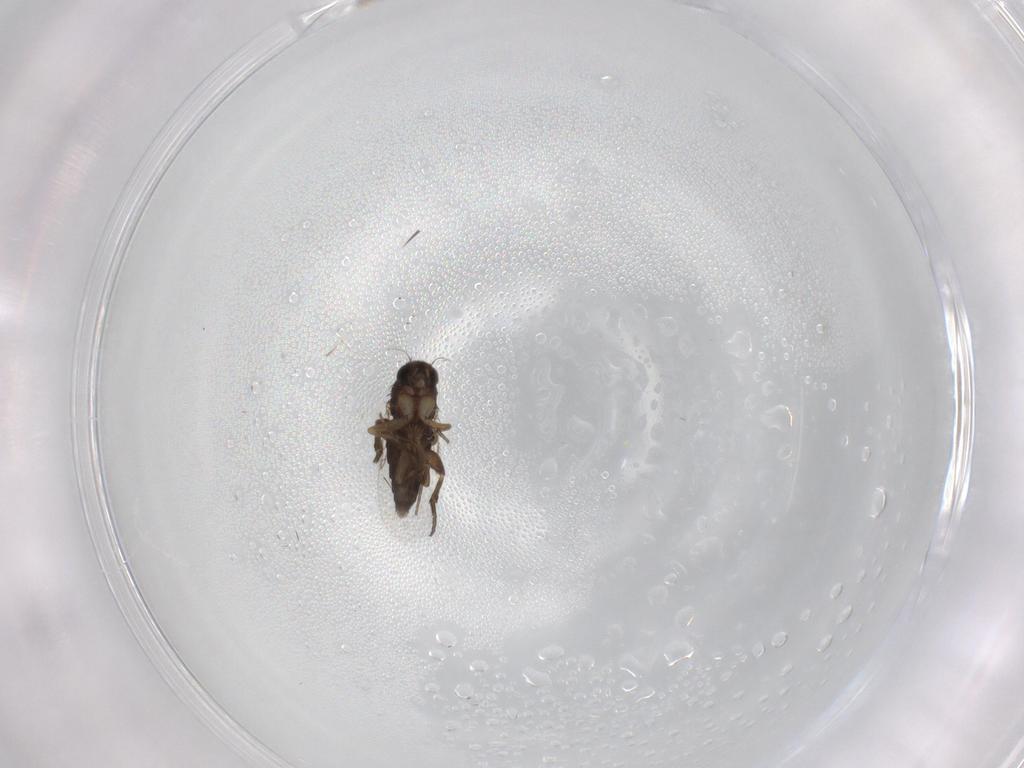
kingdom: Animalia
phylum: Arthropoda
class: Insecta
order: Diptera
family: Phoridae
